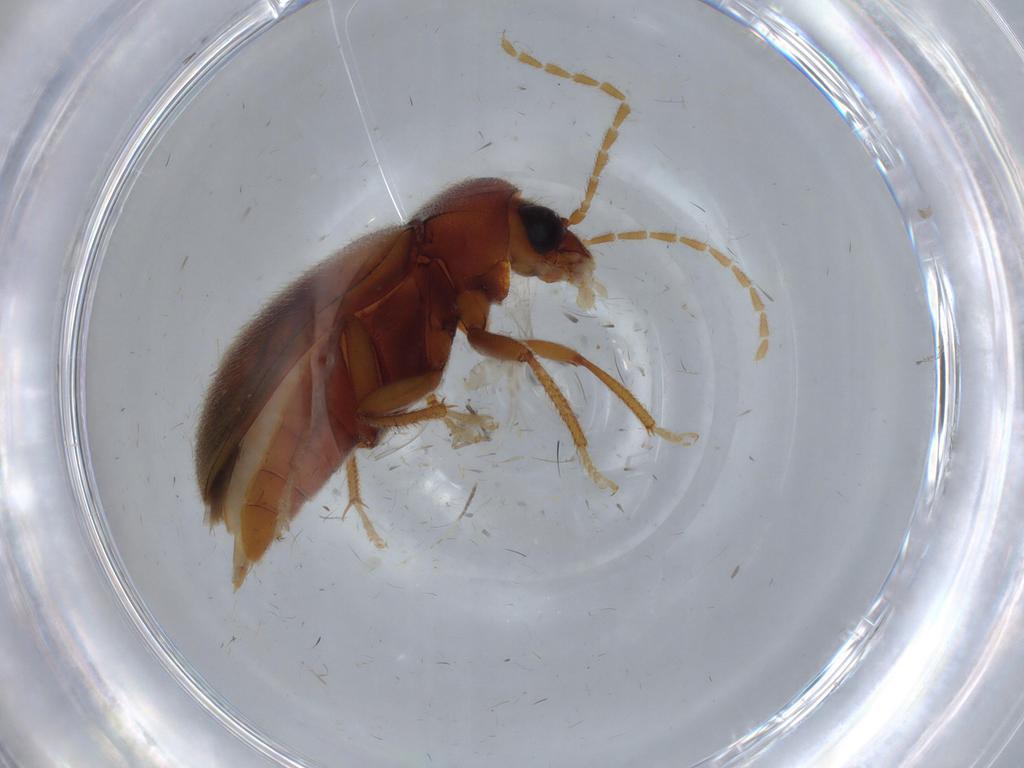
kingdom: Animalia
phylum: Arthropoda
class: Insecta
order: Coleoptera
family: Ptilodactylidae
